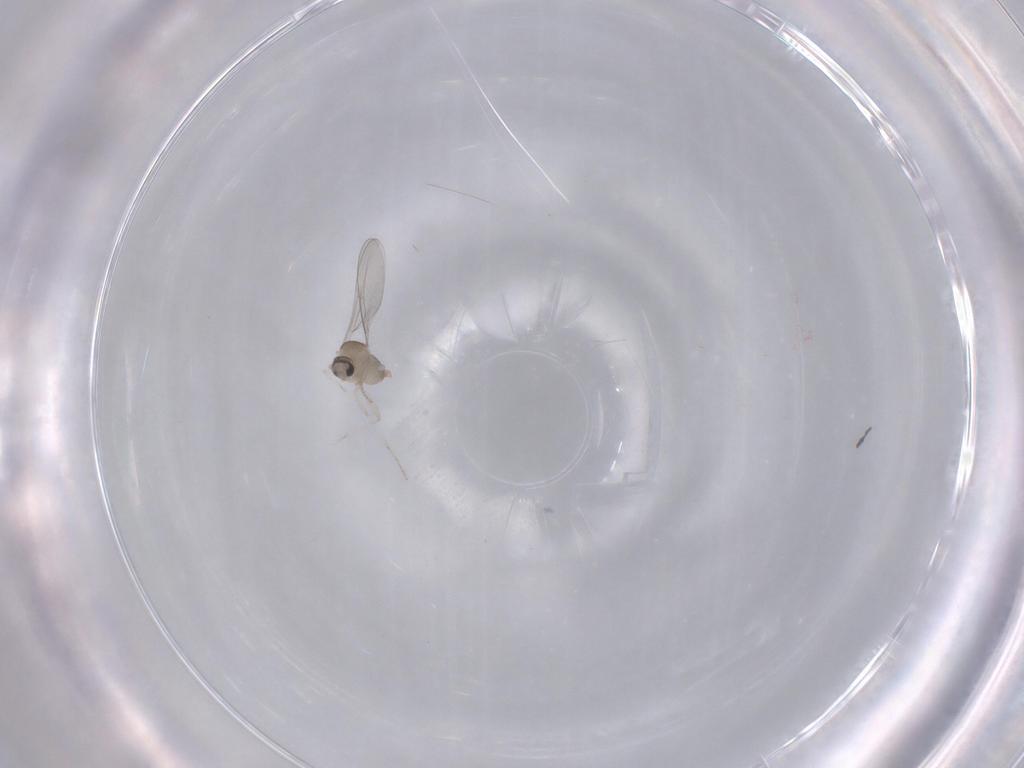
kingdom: Animalia
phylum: Arthropoda
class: Insecta
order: Diptera
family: Cecidomyiidae
